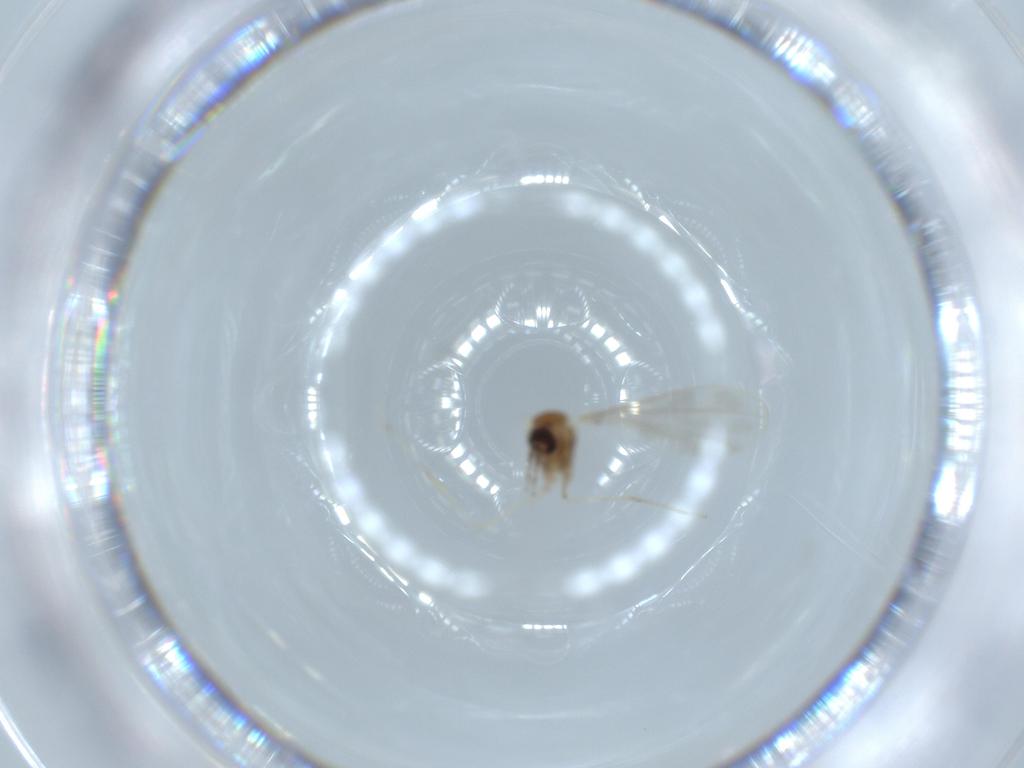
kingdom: Animalia
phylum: Arthropoda
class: Insecta
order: Diptera
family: Cecidomyiidae
